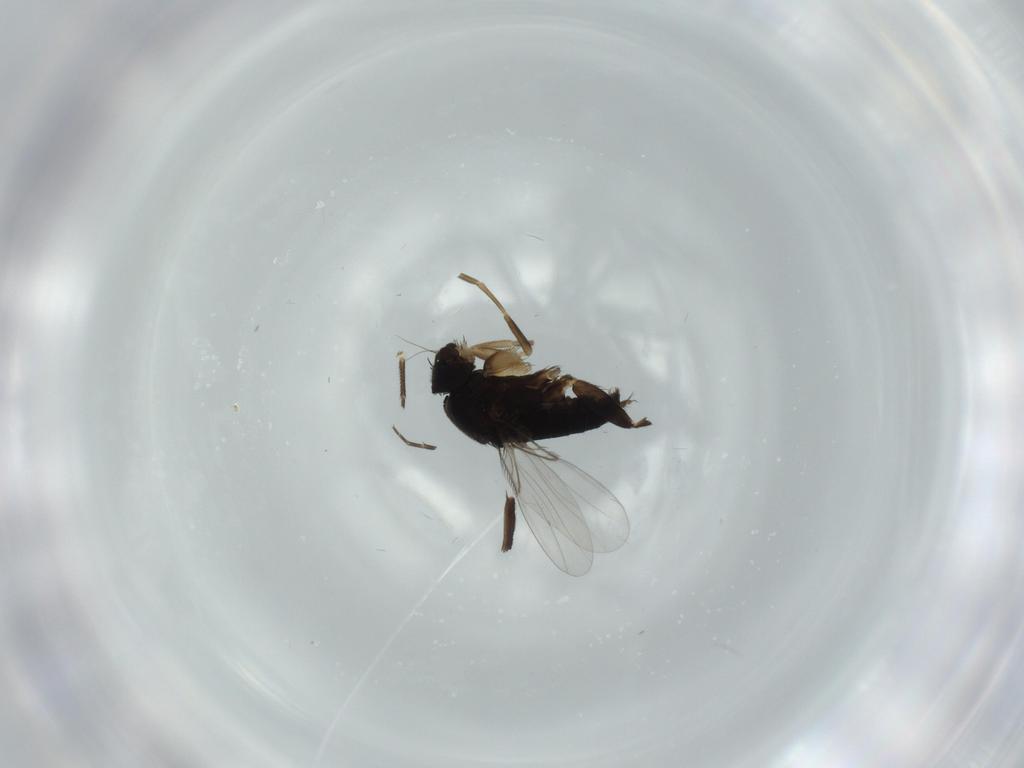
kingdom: Animalia
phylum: Arthropoda
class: Insecta
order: Diptera
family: Phoridae
